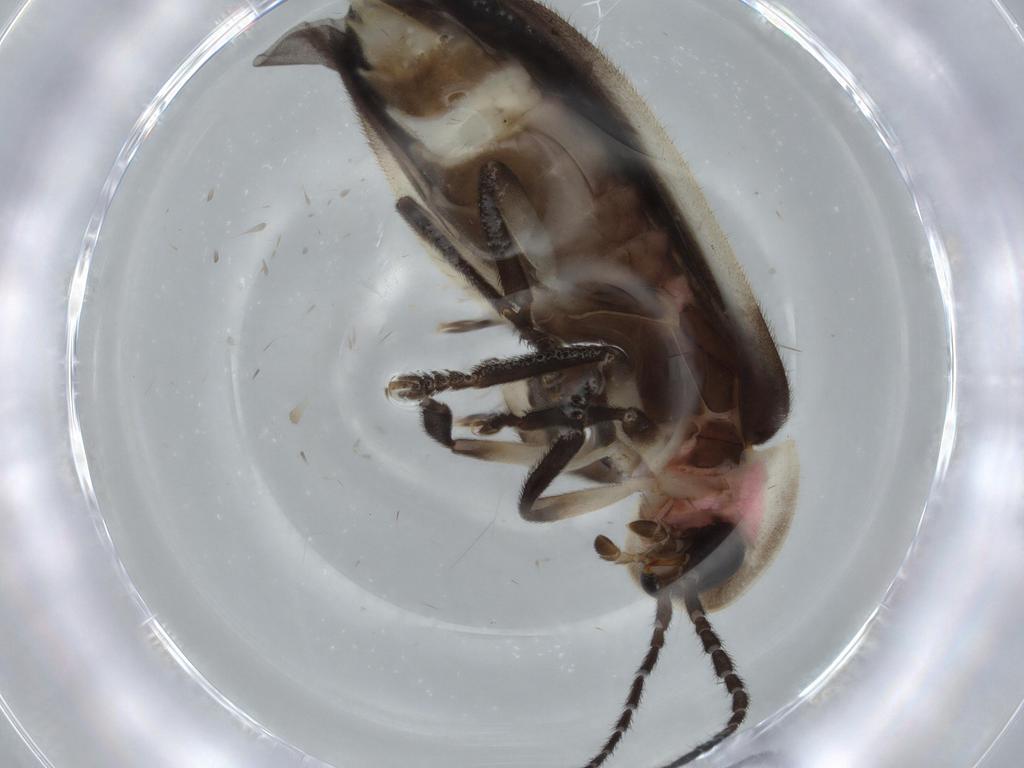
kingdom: Animalia
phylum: Arthropoda
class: Insecta
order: Coleoptera
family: Lampyridae
